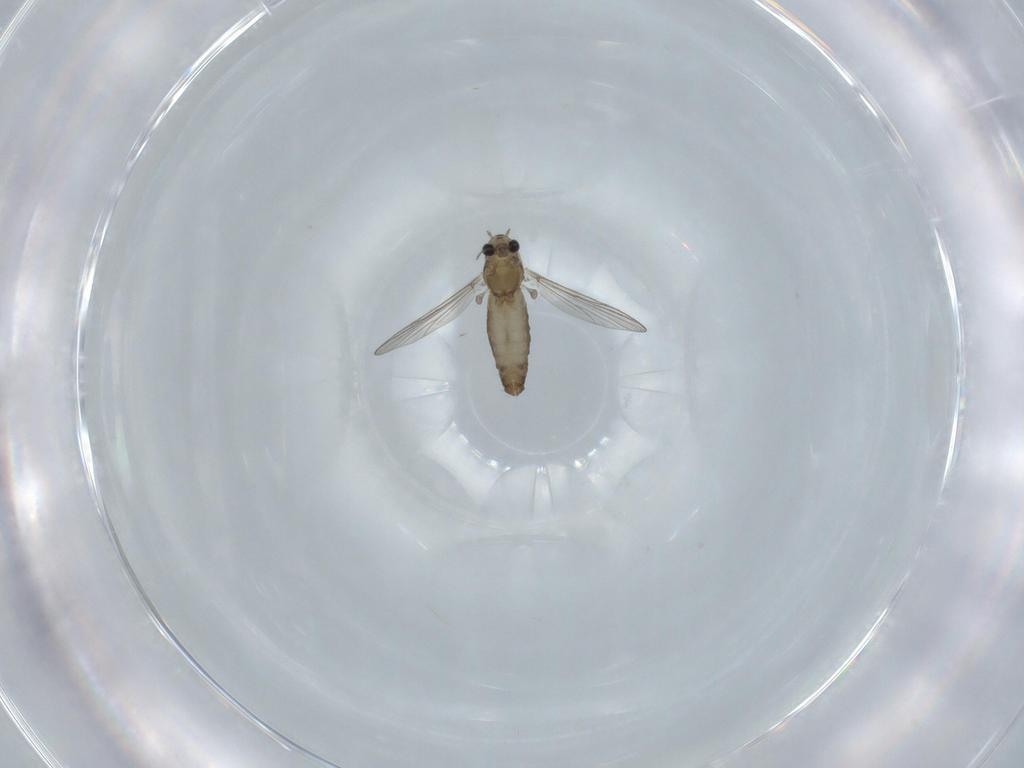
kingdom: Animalia
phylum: Arthropoda
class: Insecta
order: Diptera
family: Chironomidae
